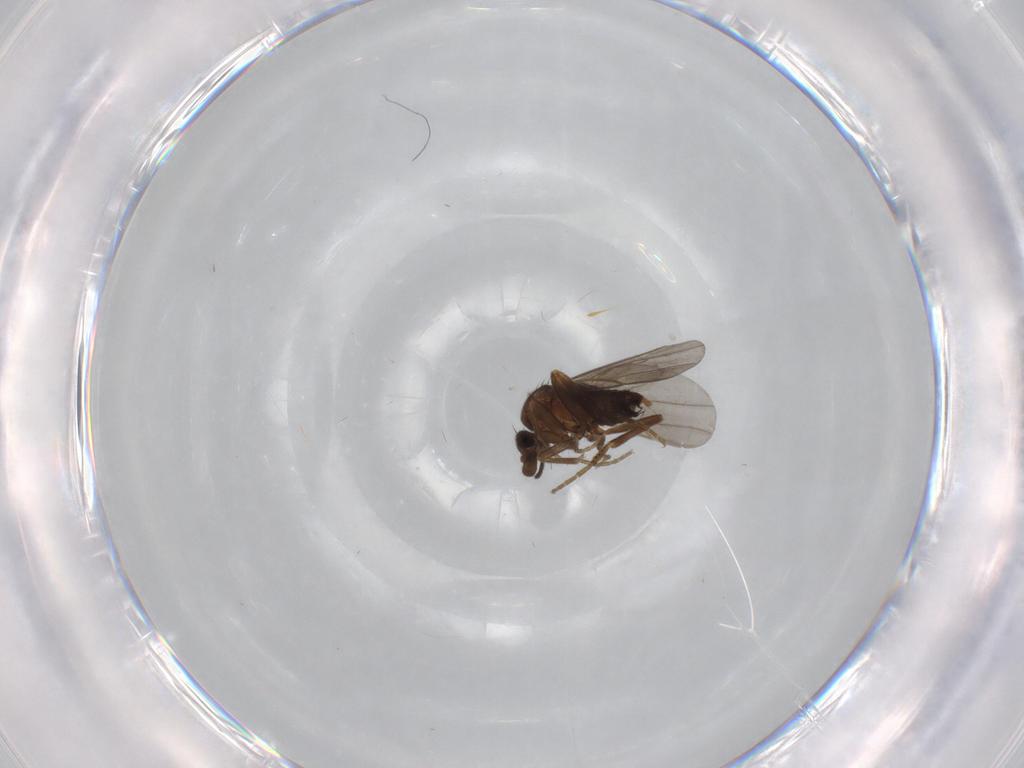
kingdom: Animalia
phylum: Arthropoda
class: Insecta
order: Diptera
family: Phoridae
